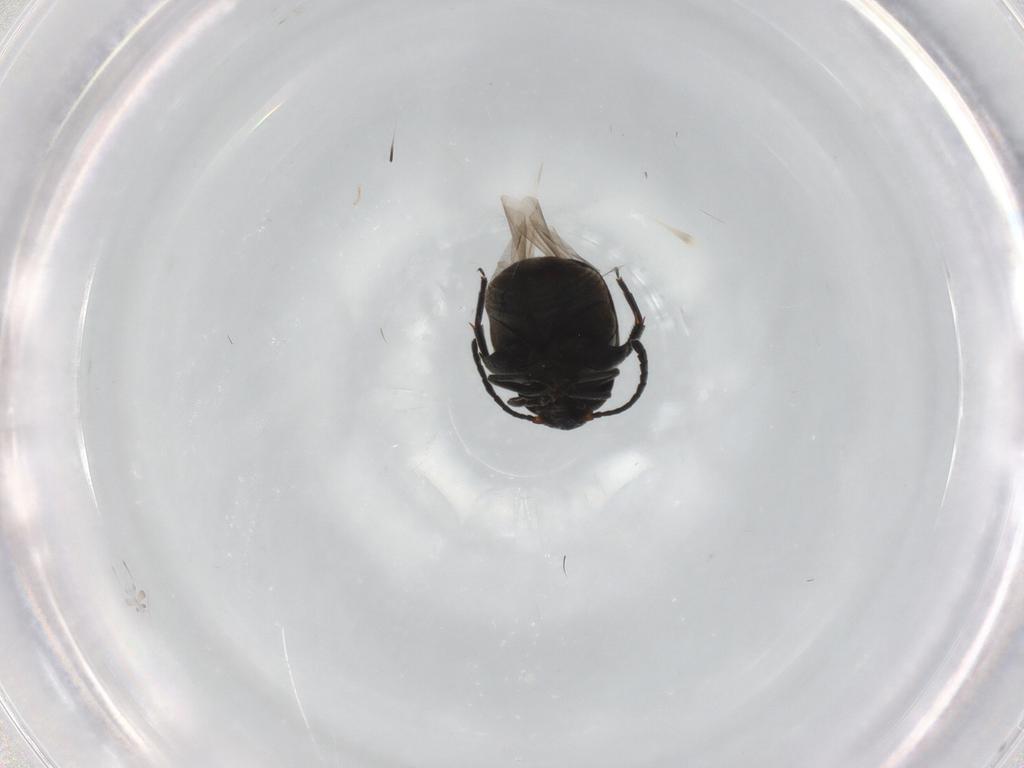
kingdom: Animalia
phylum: Arthropoda
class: Insecta
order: Coleoptera
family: Chrysomelidae
